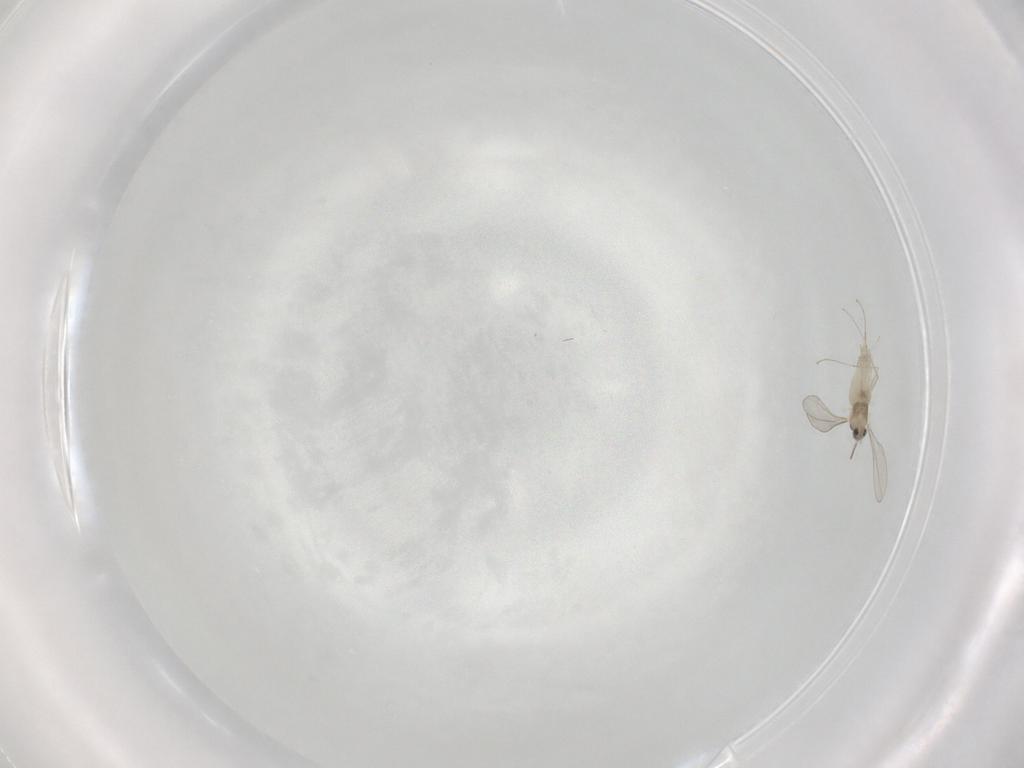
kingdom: Animalia
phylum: Arthropoda
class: Insecta
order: Diptera
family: Cecidomyiidae
